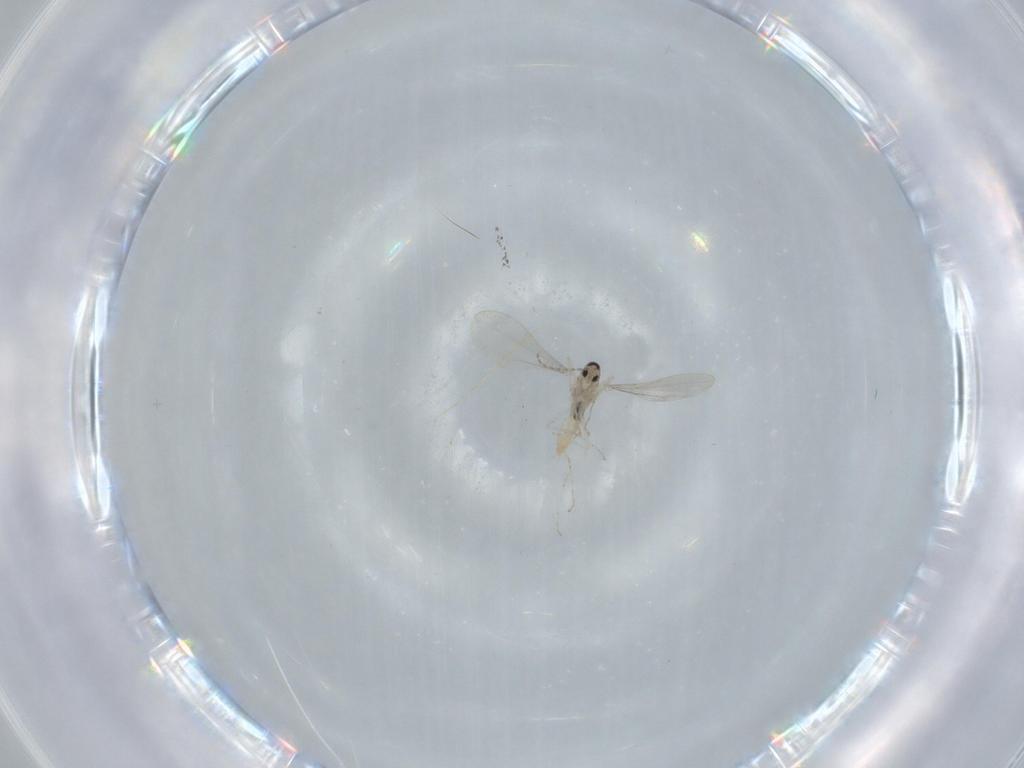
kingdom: Animalia
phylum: Arthropoda
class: Insecta
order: Diptera
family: Cecidomyiidae
